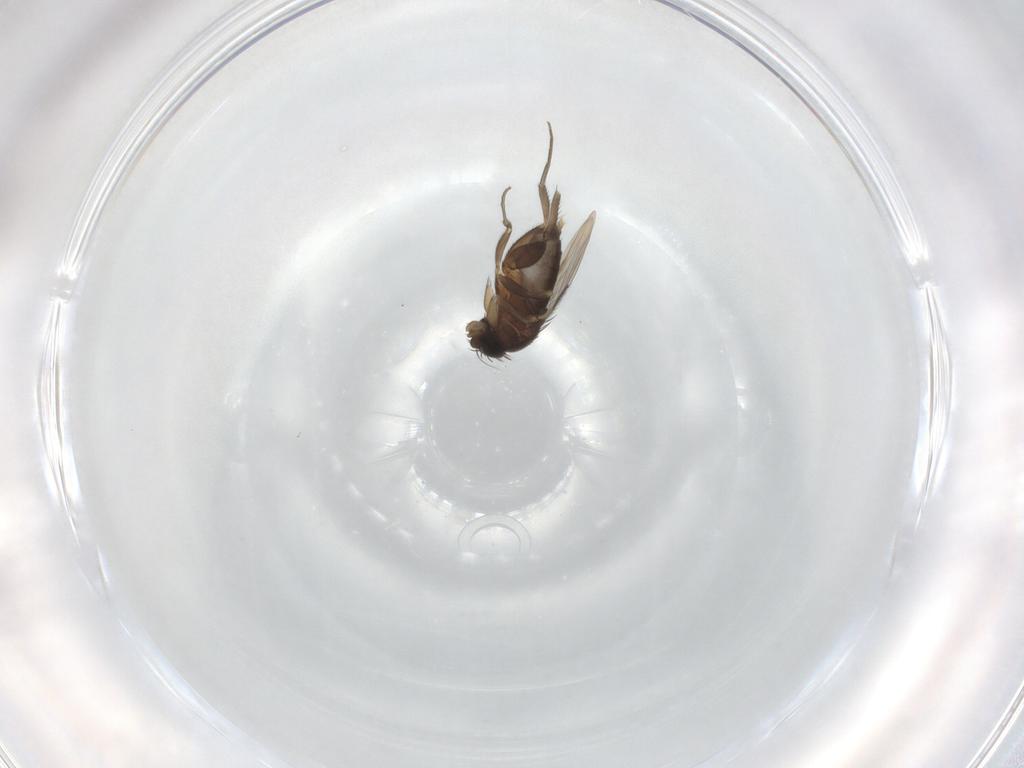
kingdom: Animalia
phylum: Arthropoda
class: Insecta
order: Diptera
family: Phoridae
